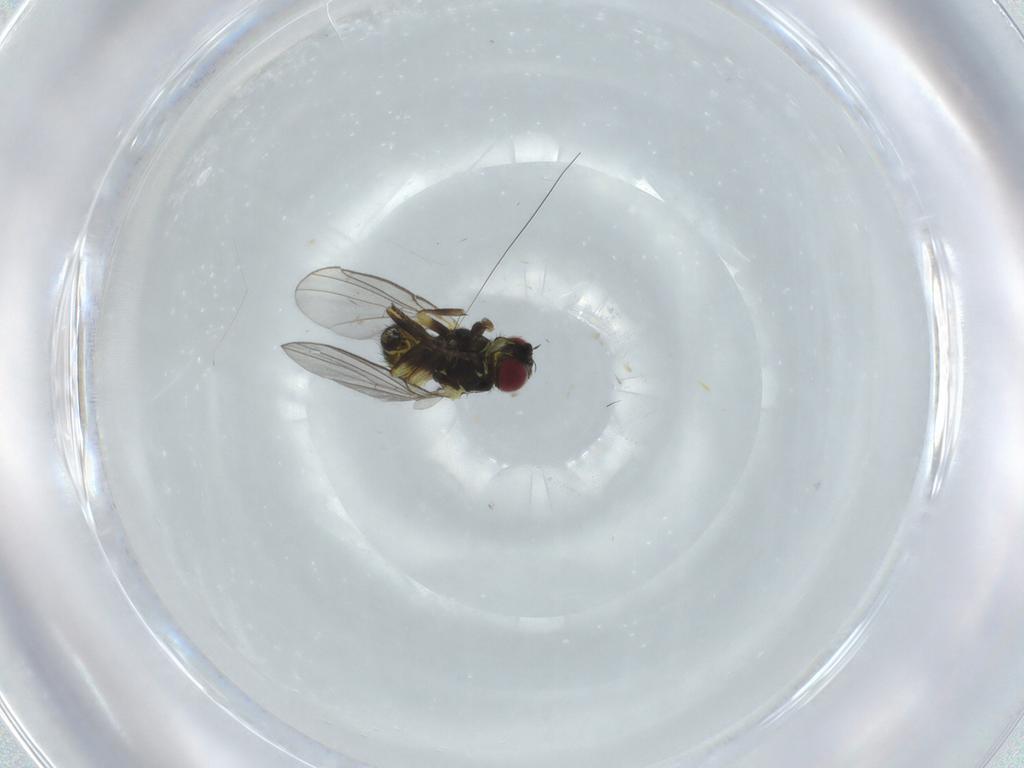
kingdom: Animalia
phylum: Arthropoda
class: Insecta
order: Diptera
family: Agromyzidae
